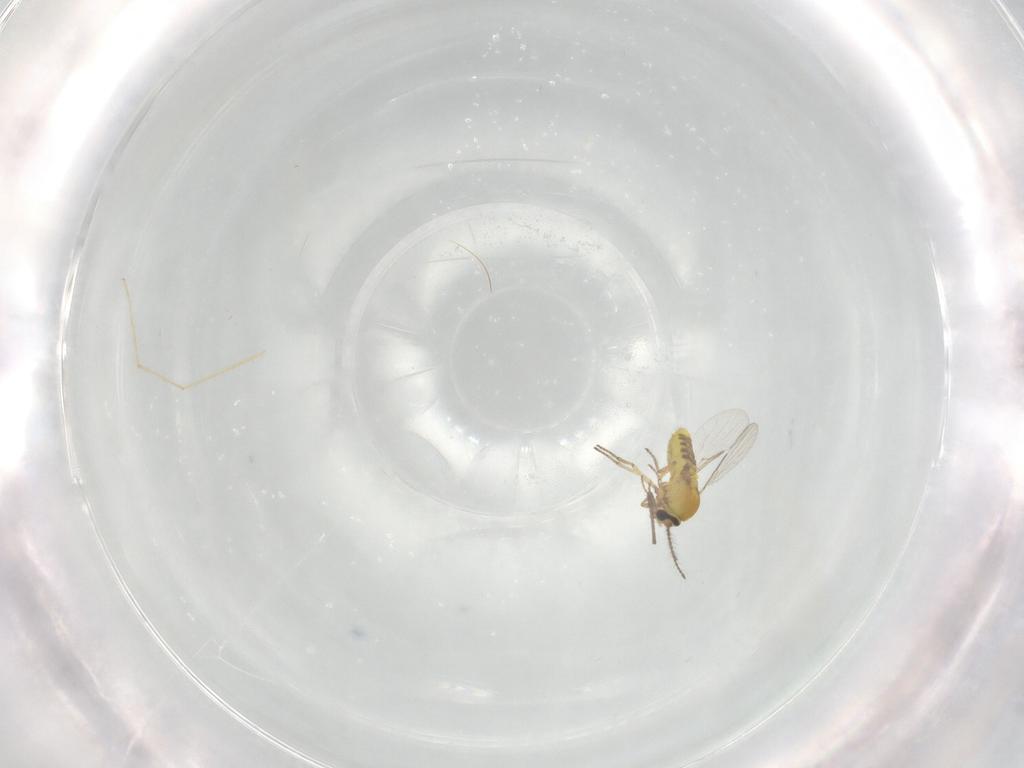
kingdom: Animalia
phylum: Arthropoda
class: Insecta
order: Diptera
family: Ceratopogonidae
